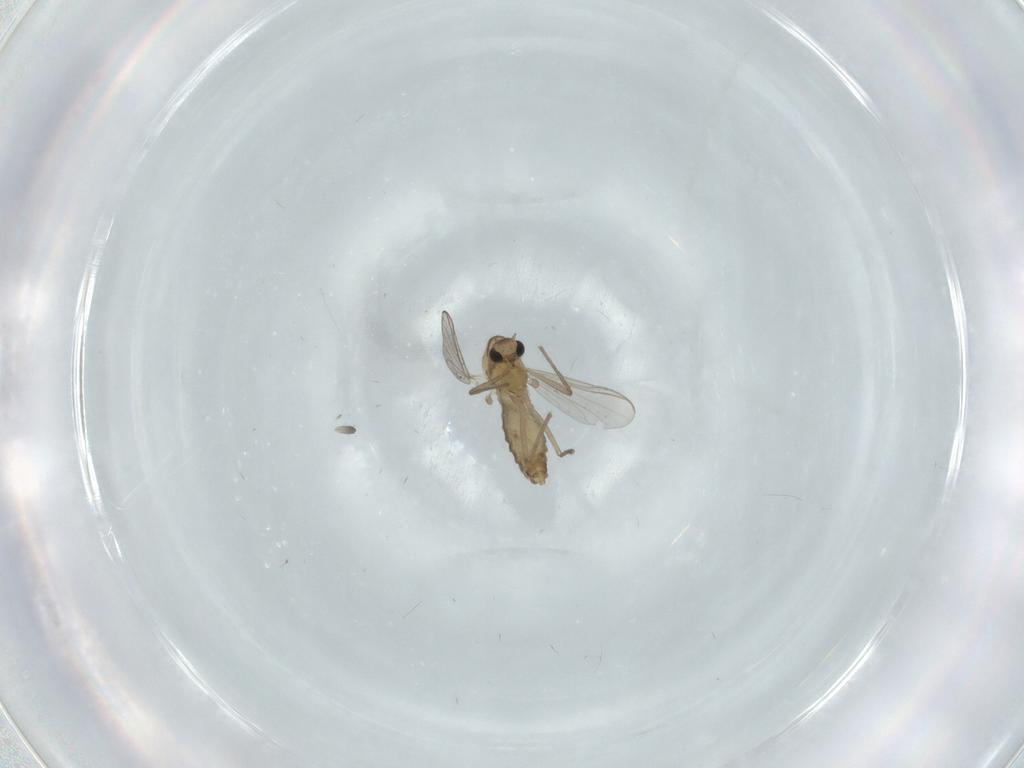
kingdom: Animalia
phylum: Arthropoda
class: Insecta
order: Diptera
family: Chironomidae
